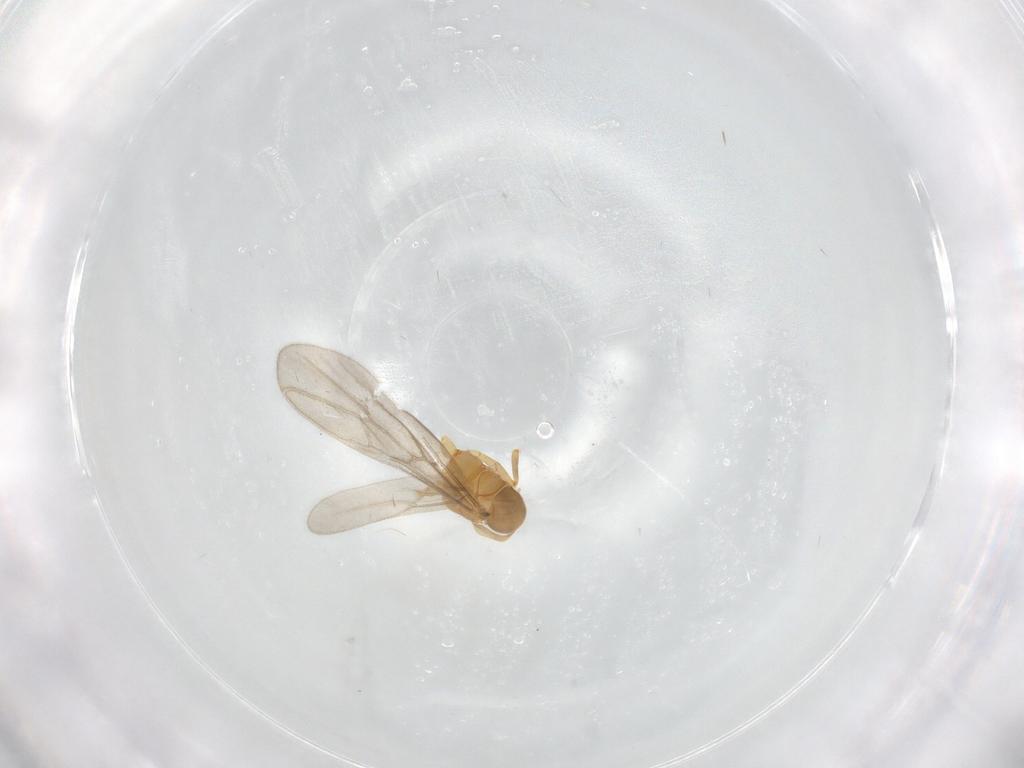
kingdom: Animalia
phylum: Arthropoda
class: Insecta
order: Hymenoptera
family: Formicidae
